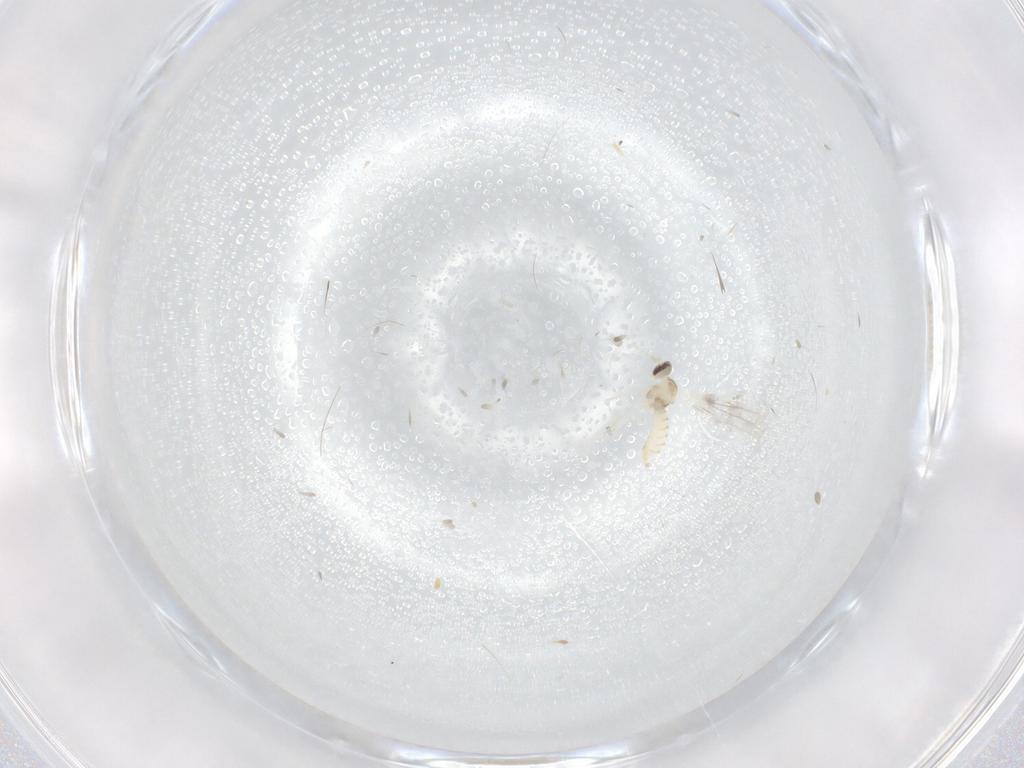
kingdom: Animalia
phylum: Arthropoda
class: Insecta
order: Diptera
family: Cecidomyiidae
